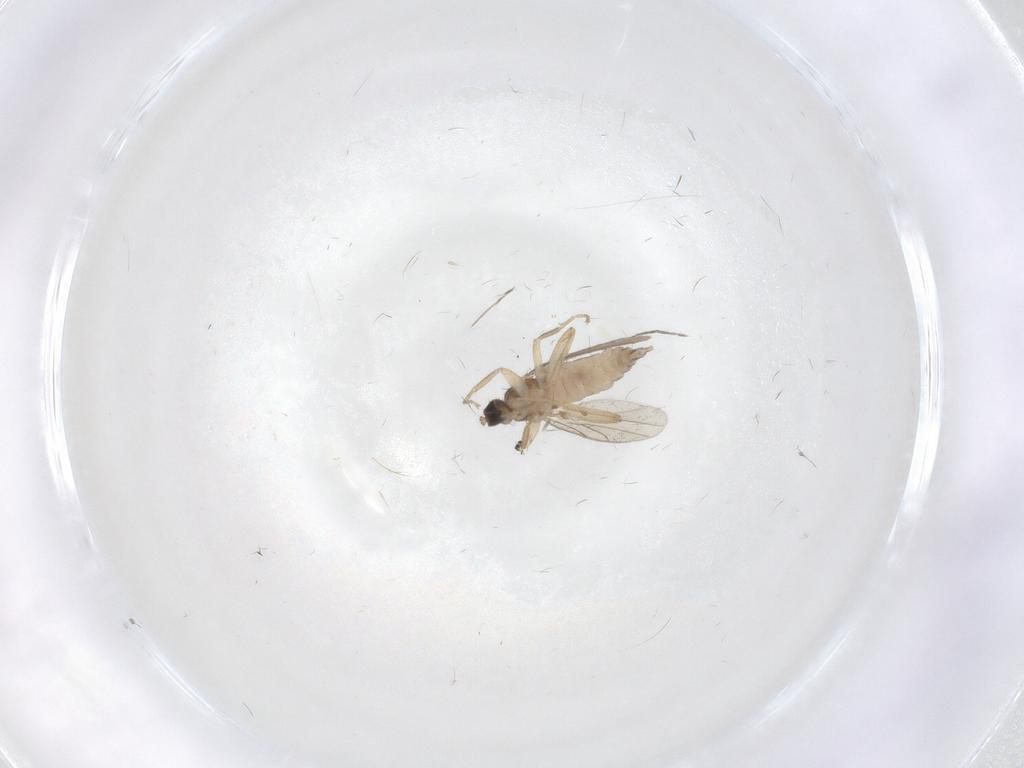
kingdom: Animalia
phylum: Arthropoda
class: Insecta
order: Diptera
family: Hybotidae
